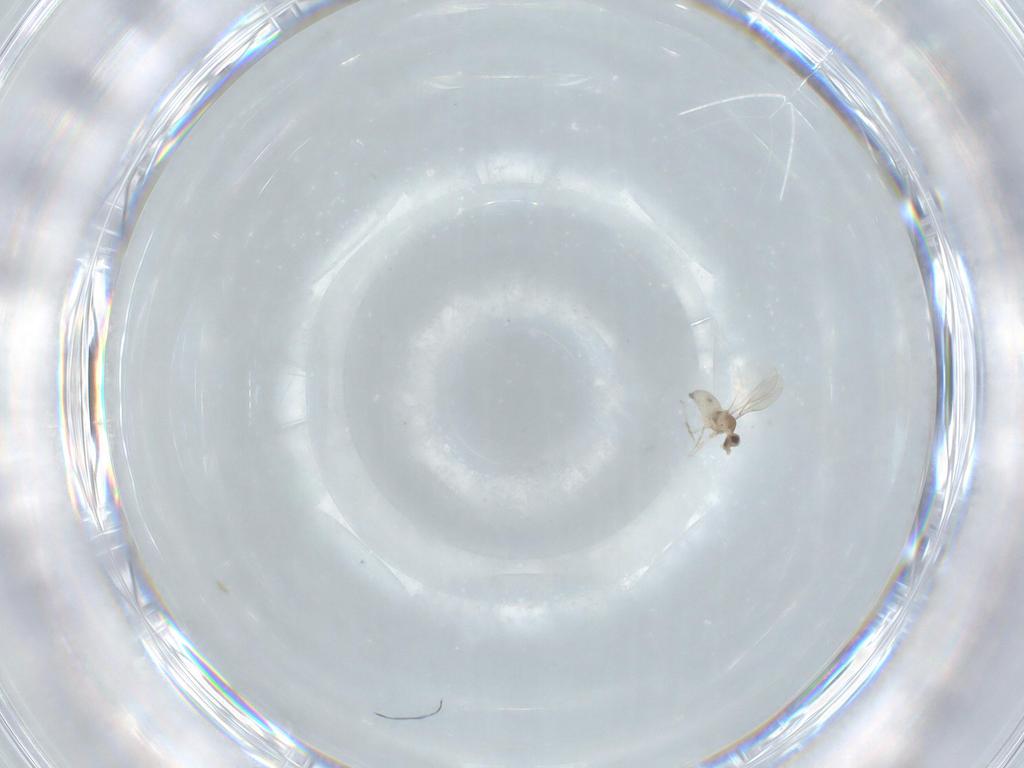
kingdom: Animalia
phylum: Arthropoda
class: Insecta
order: Diptera
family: Cecidomyiidae
